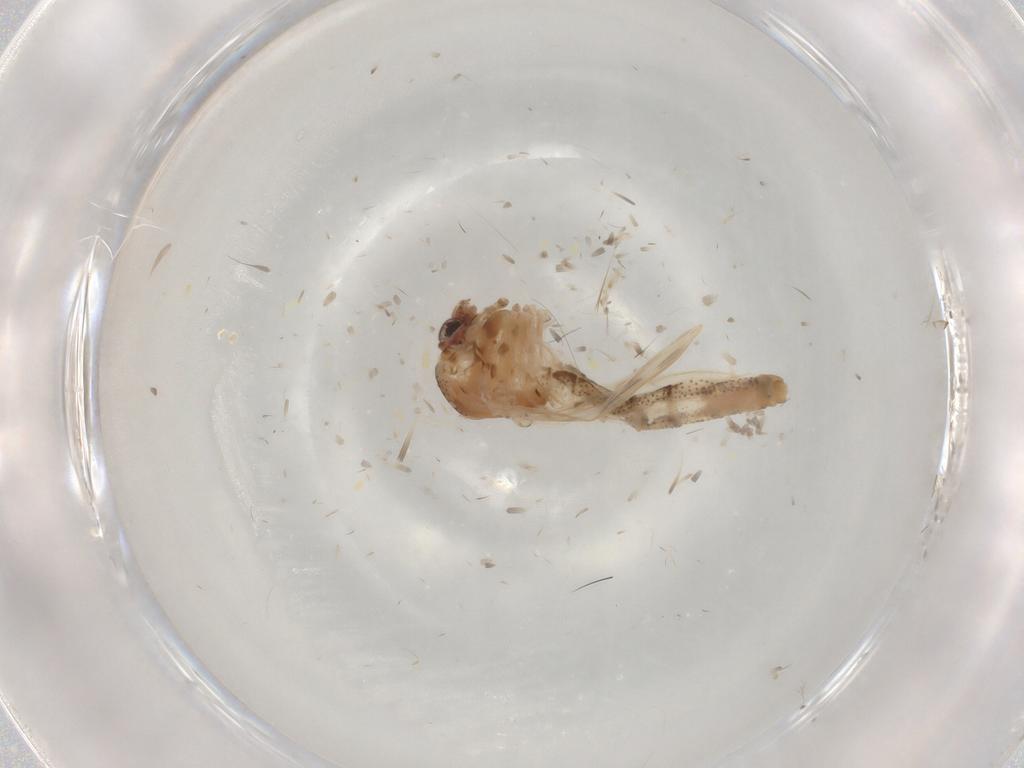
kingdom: Animalia
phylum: Arthropoda
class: Insecta
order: Diptera
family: Chaoboridae
